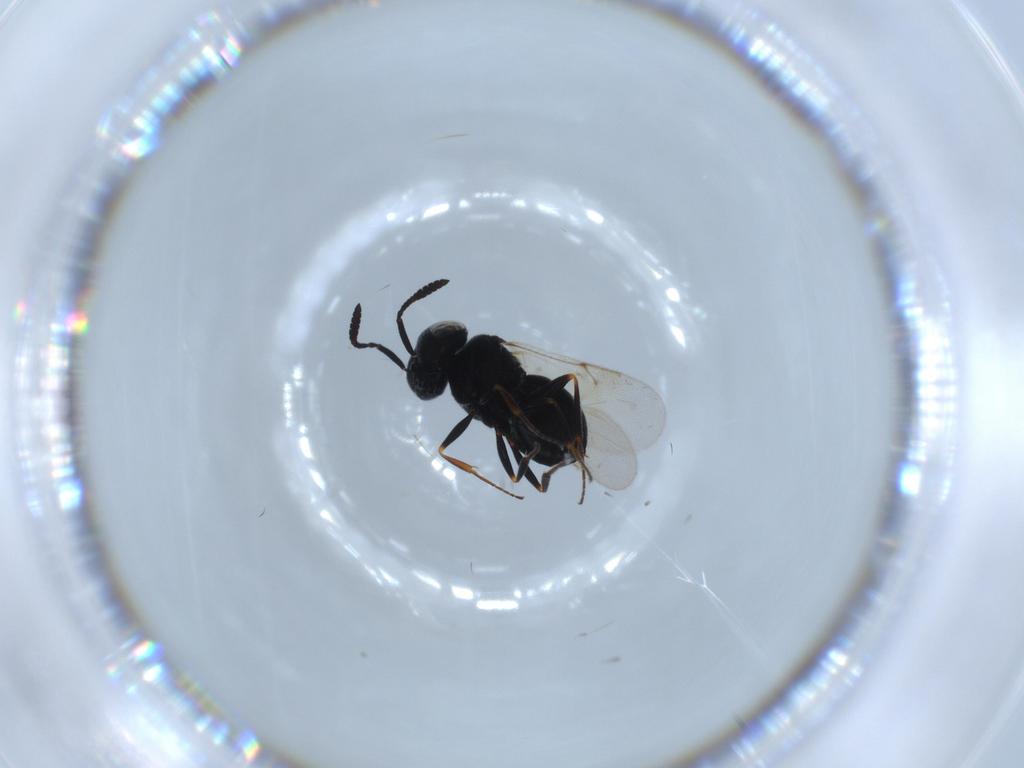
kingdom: Animalia
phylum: Arthropoda
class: Insecta
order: Hymenoptera
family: Scelionidae
